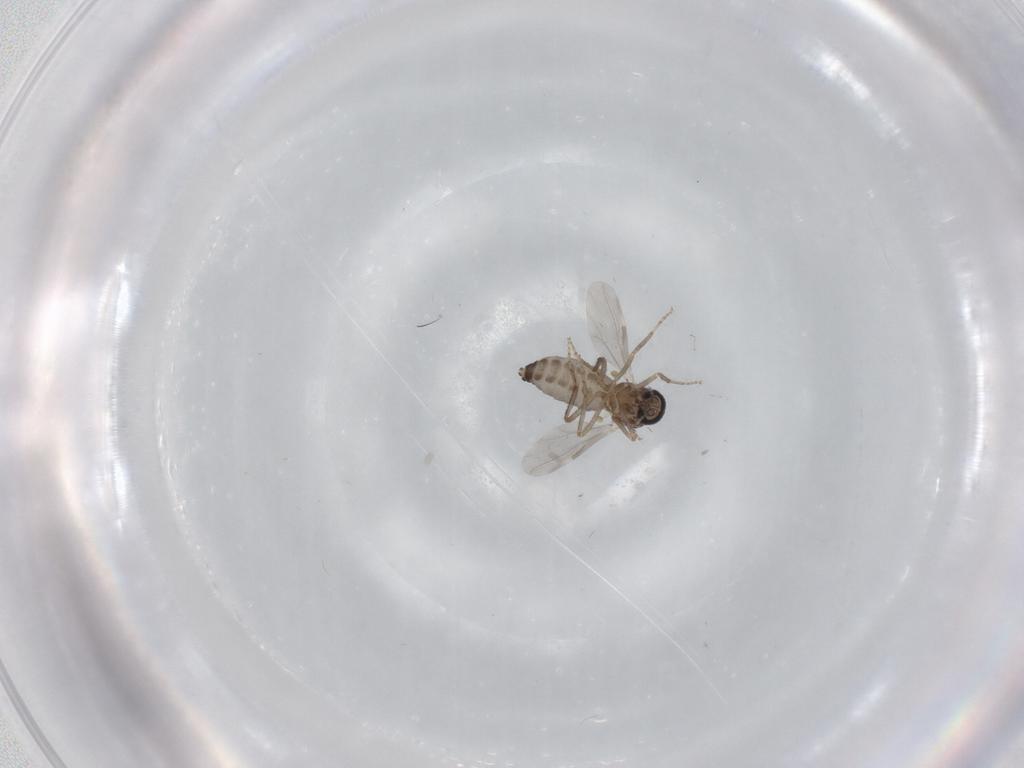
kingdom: Animalia
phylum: Arthropoda
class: Insecta
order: Diptera
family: Ceratopogonidae
